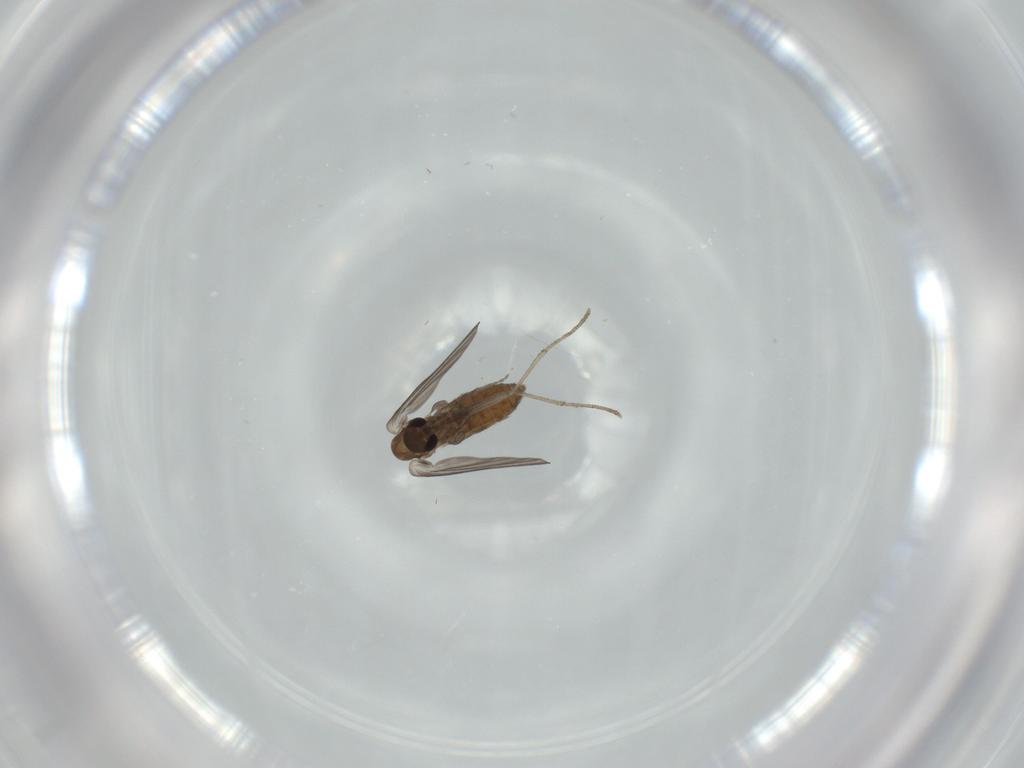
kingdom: Animalia
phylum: Arthropoda
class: Insecta
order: Diptera
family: Psychodidae
